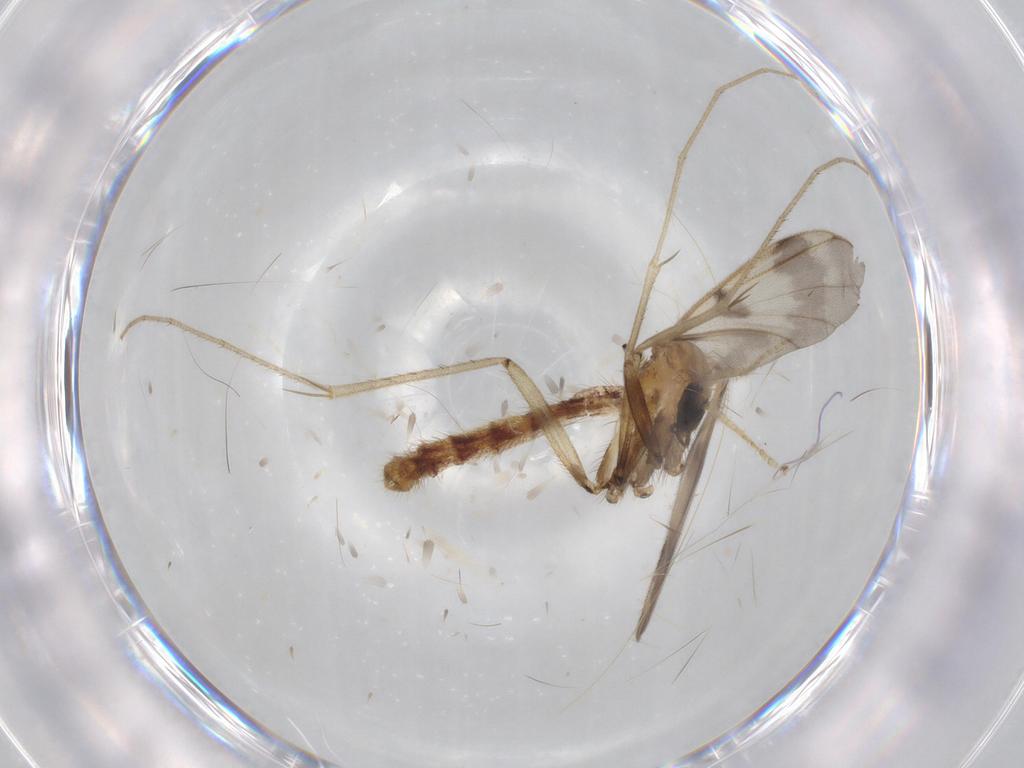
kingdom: Animalia
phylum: Arthropoda
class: Insecta
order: Diptera
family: Mycetophilidae
